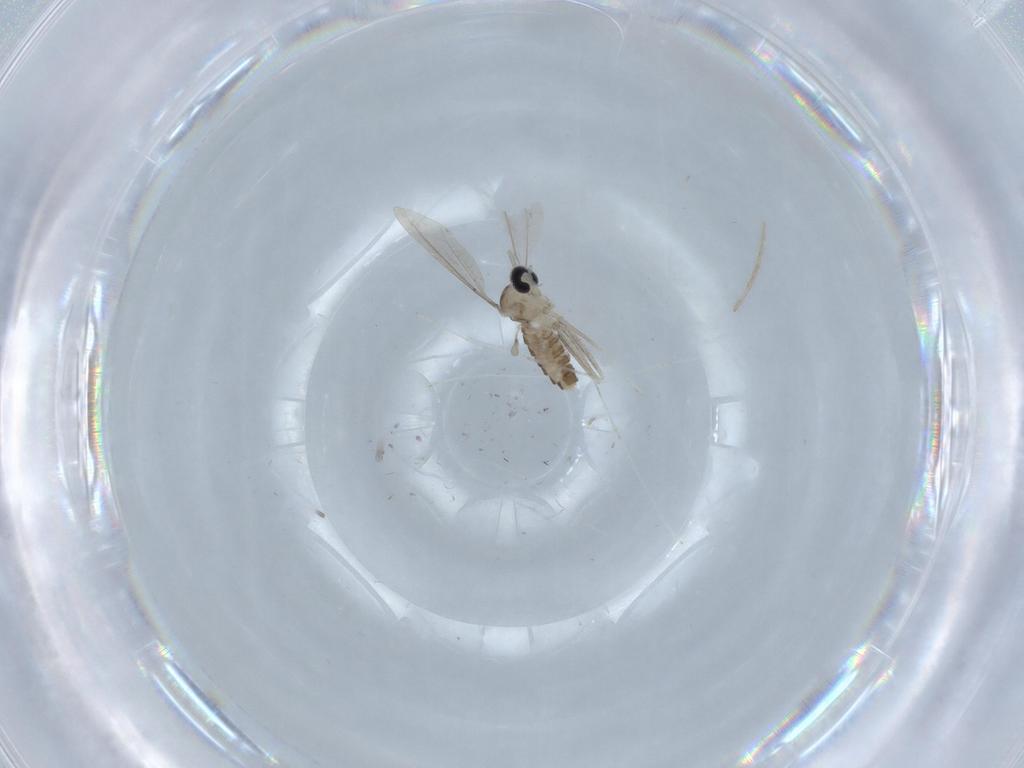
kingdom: Animalia
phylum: Arthropoda
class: Insecta
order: Diptera
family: Cecidomyiidae
